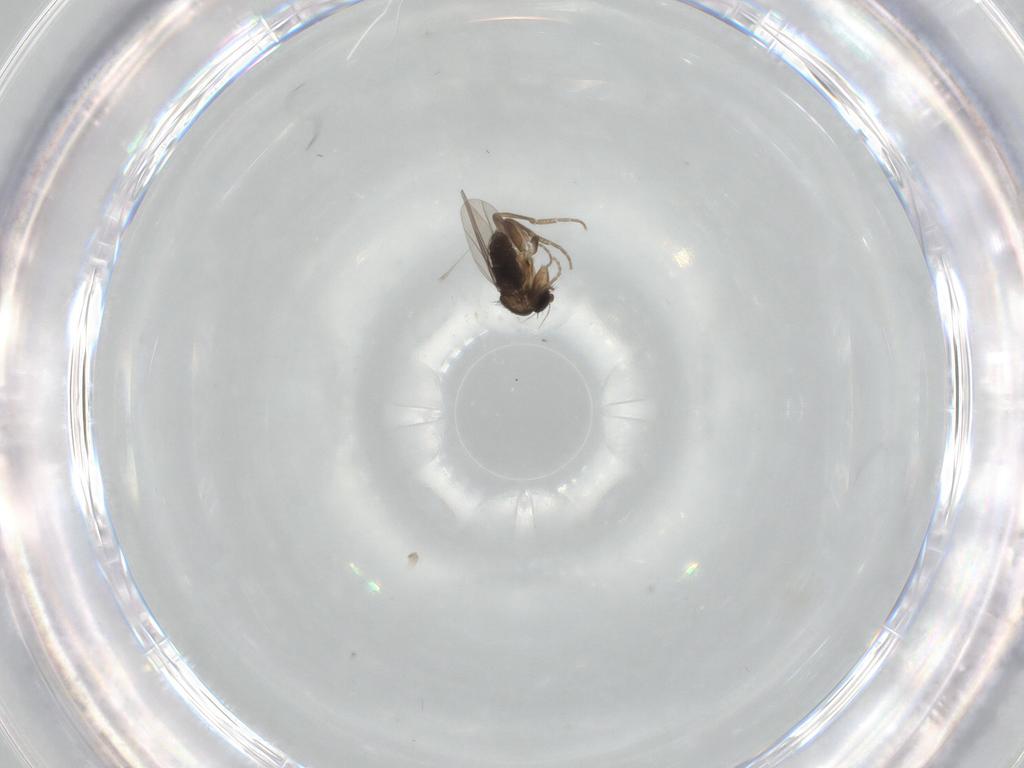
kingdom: Animalia
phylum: Arthropoda
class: Insecta
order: Diptera
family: Phoridae
